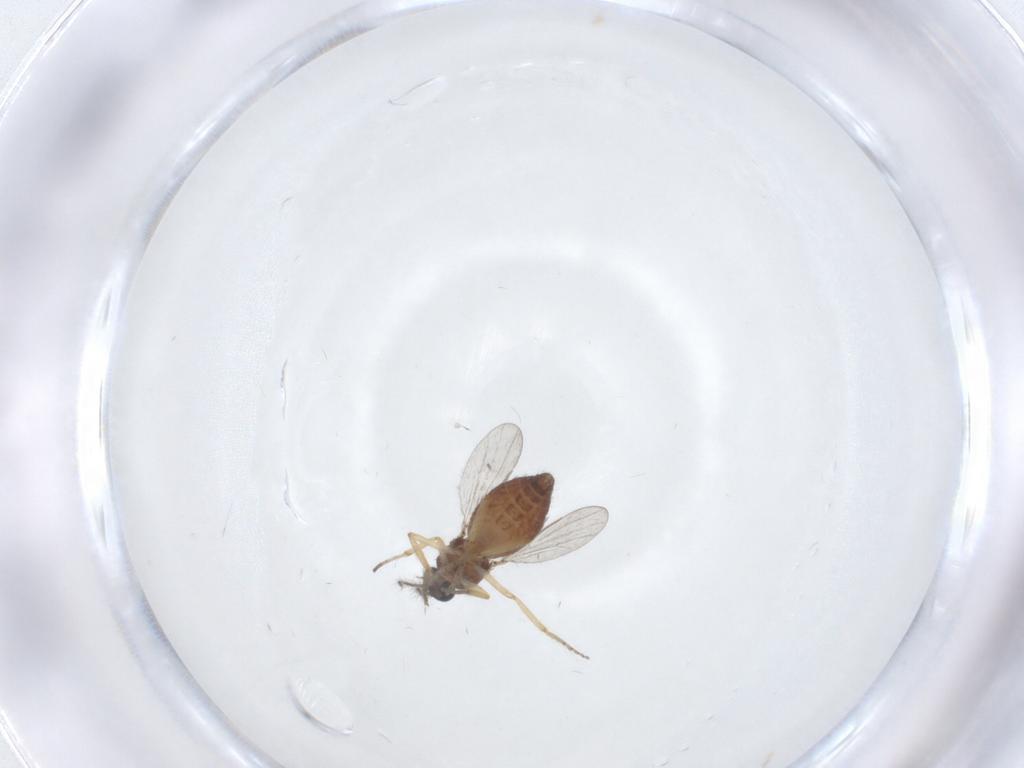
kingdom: Animalia
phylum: Arthropoda
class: Insecta
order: Diptera
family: Ceratopogonidae
